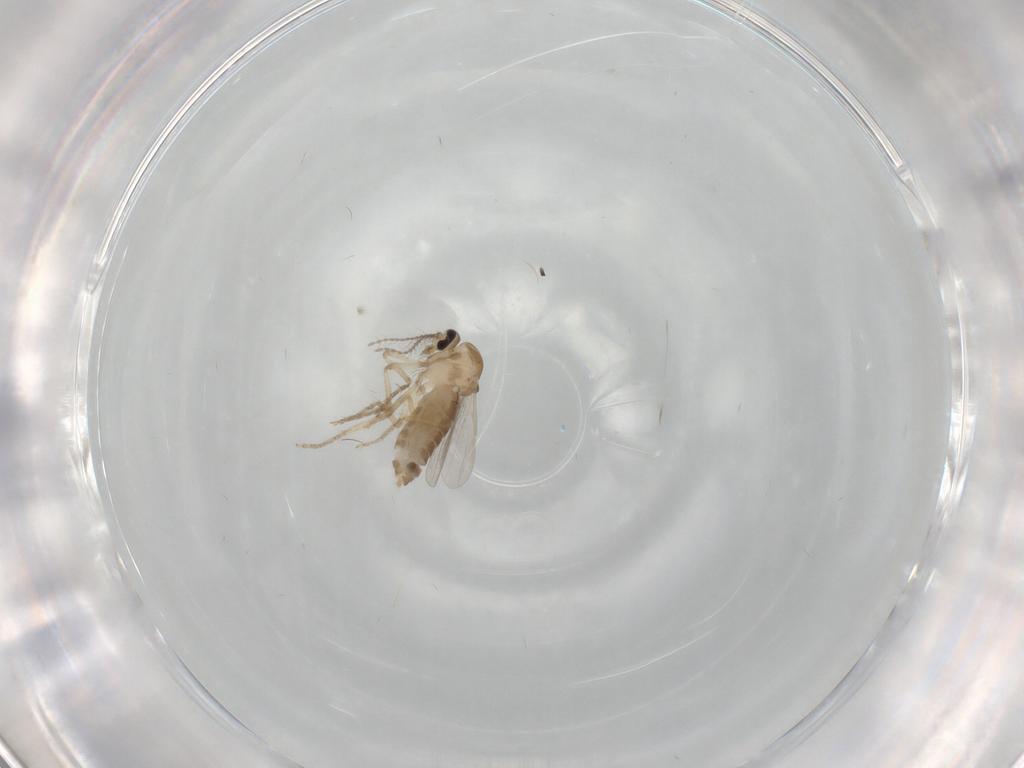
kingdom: Animalia
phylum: Arthropoda
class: Insecta
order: Diptera
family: Ceratopogonidae
